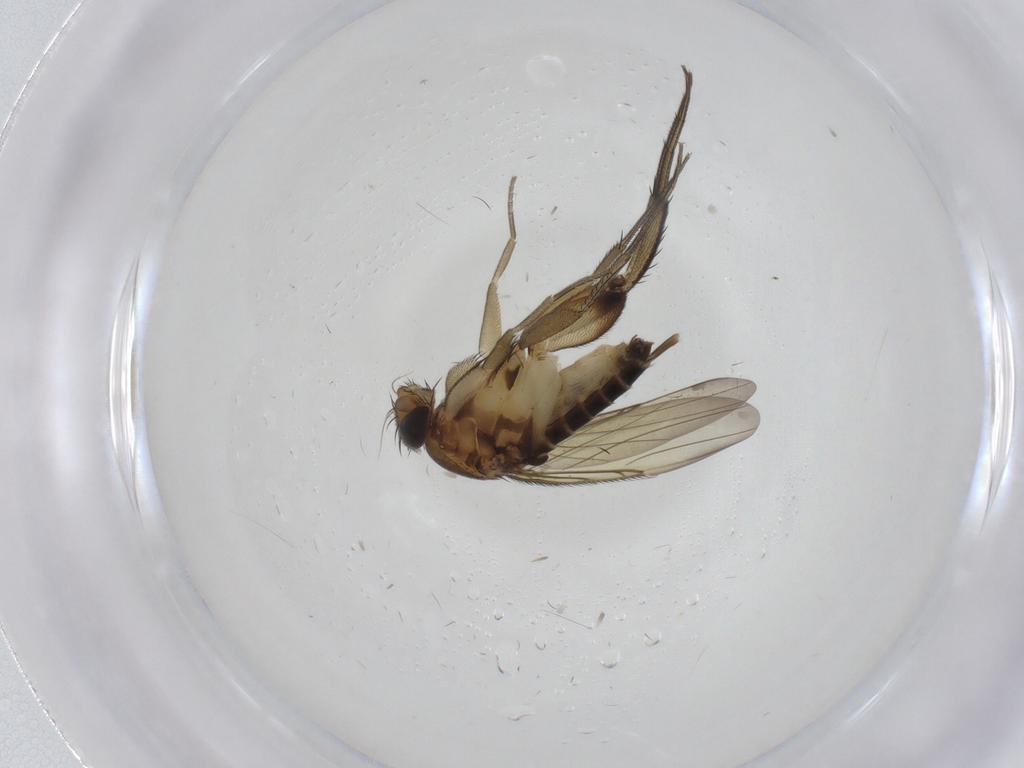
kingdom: Animalia
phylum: Arthropoda
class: Insecta
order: Diptera
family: Phoridae
